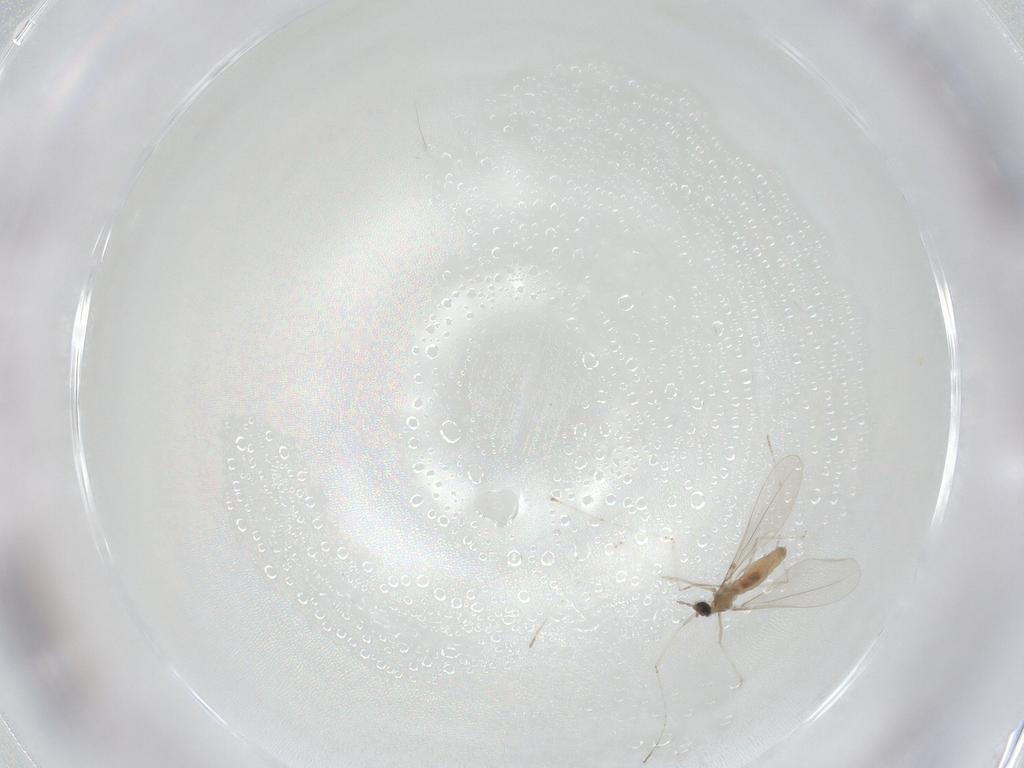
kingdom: Animalia
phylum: Arthropoda
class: Insecta
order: Diptera
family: Cecidomyiidae
